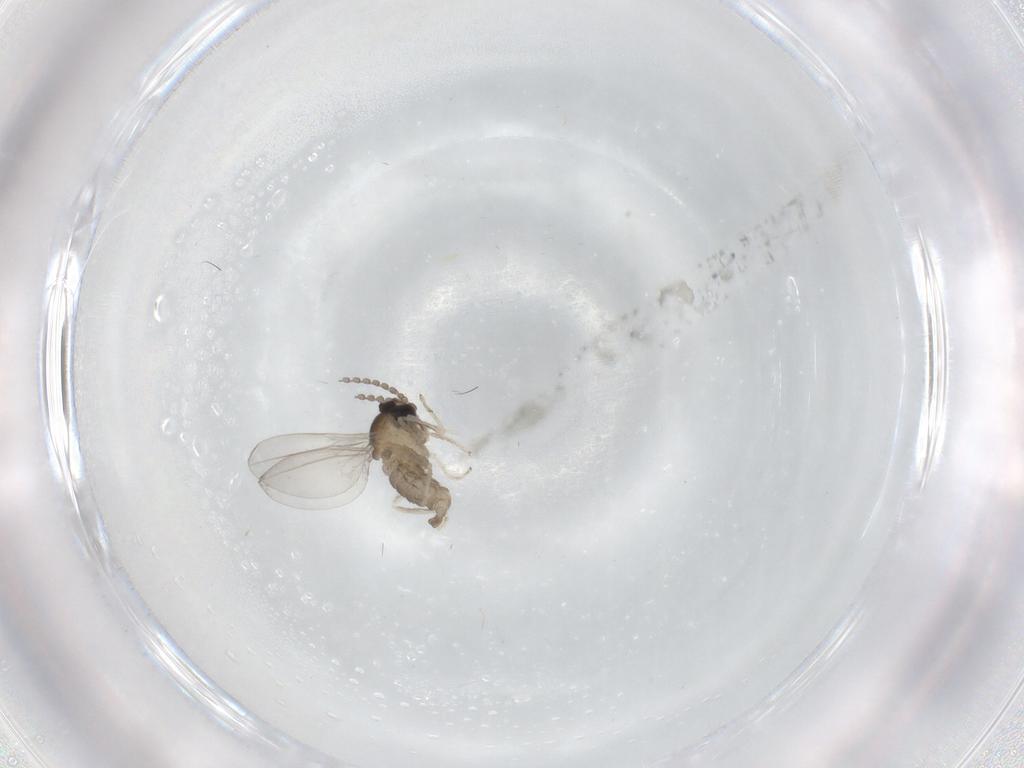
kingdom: Animalia
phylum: Arthropoda
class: Insecta
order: Diptera
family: Cecidomyiidae
